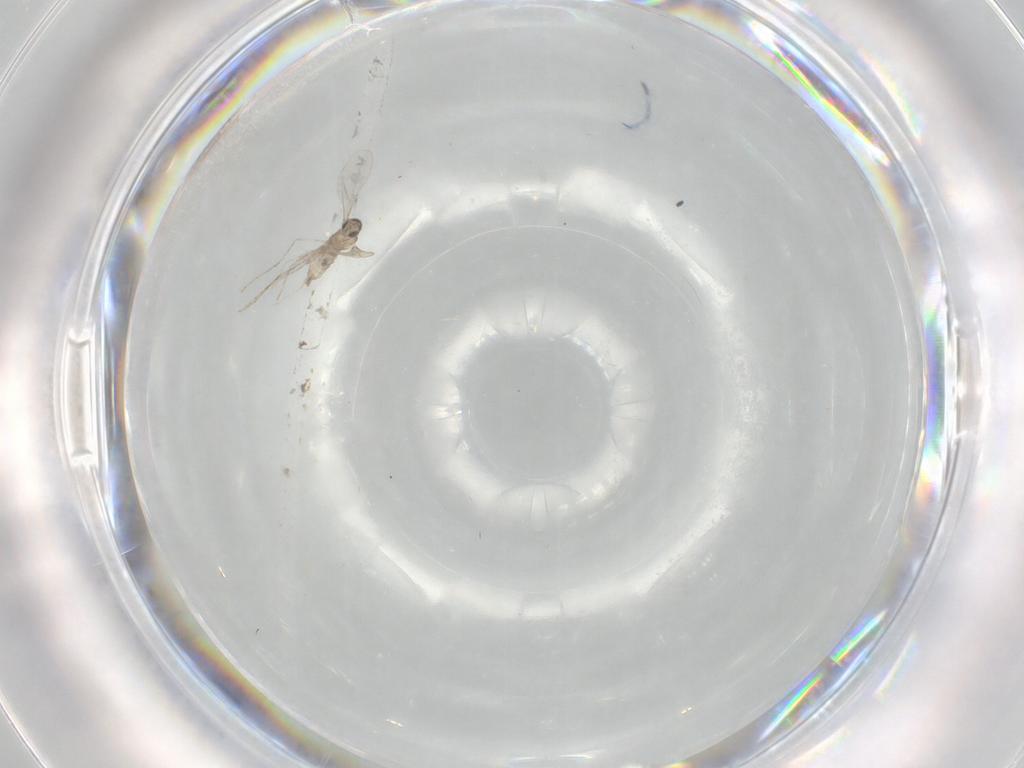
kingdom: Animalia
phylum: Arthropoda
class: Insecta
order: Diptera
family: Cecidomyiidae
